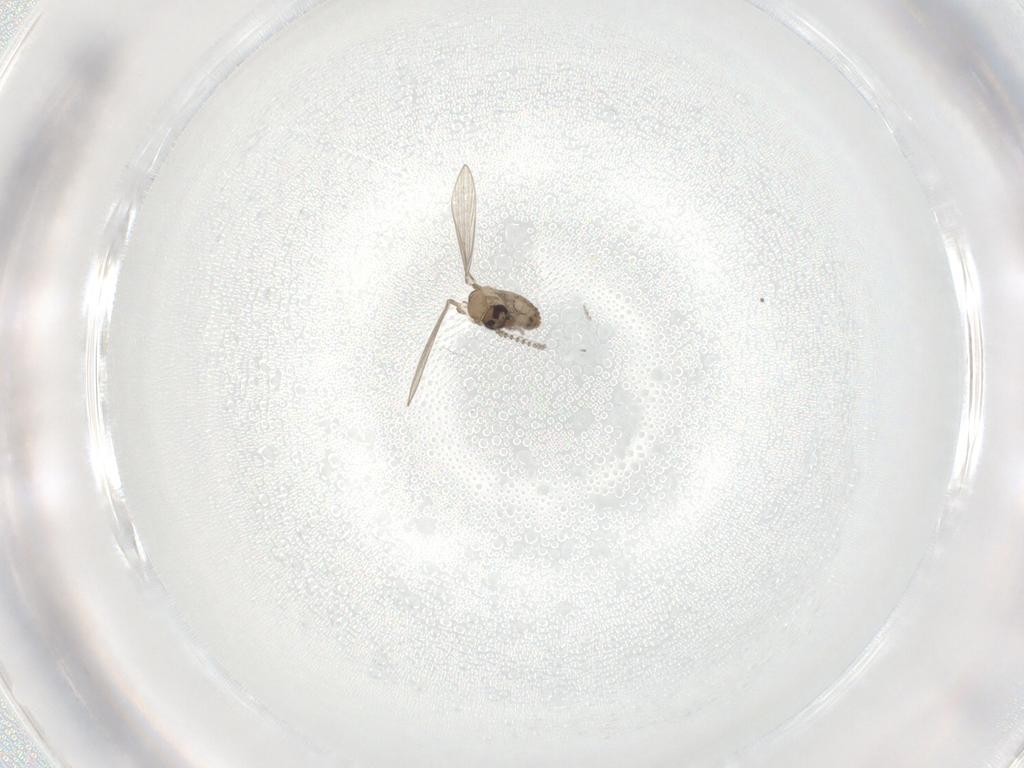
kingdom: Animalia
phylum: Arthropoda
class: Insecta
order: Diptera
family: Psychodidae
